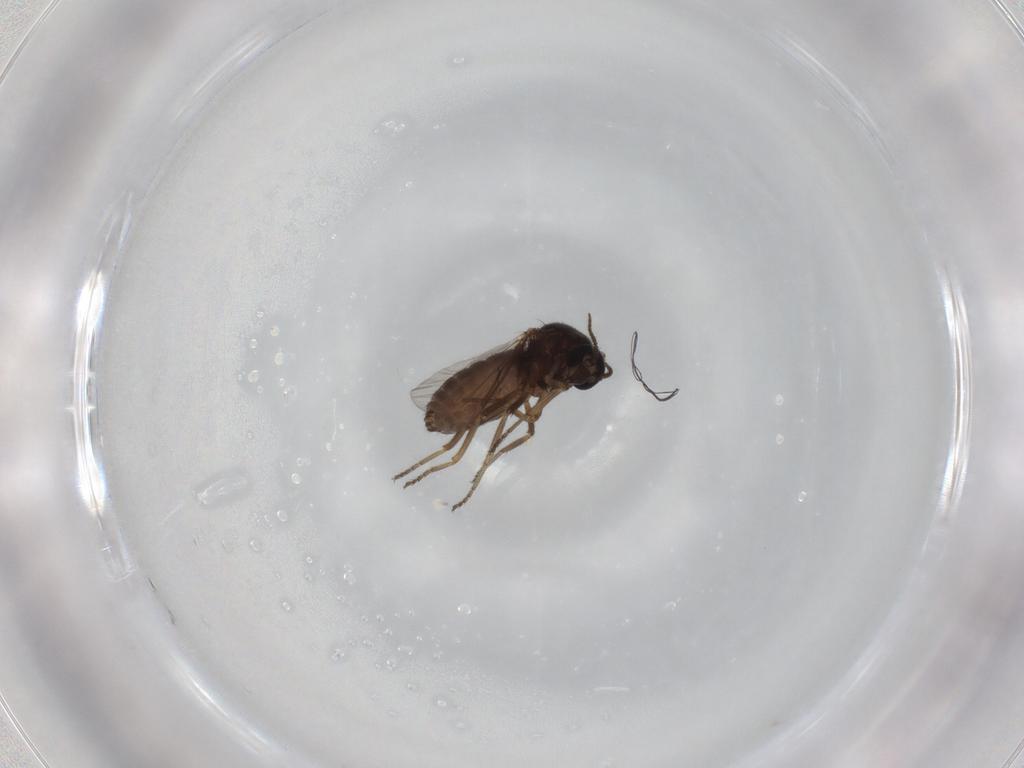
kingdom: Animalia
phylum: Arthropoda
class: Insecta
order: Diptera
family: Ceratopogonidae
